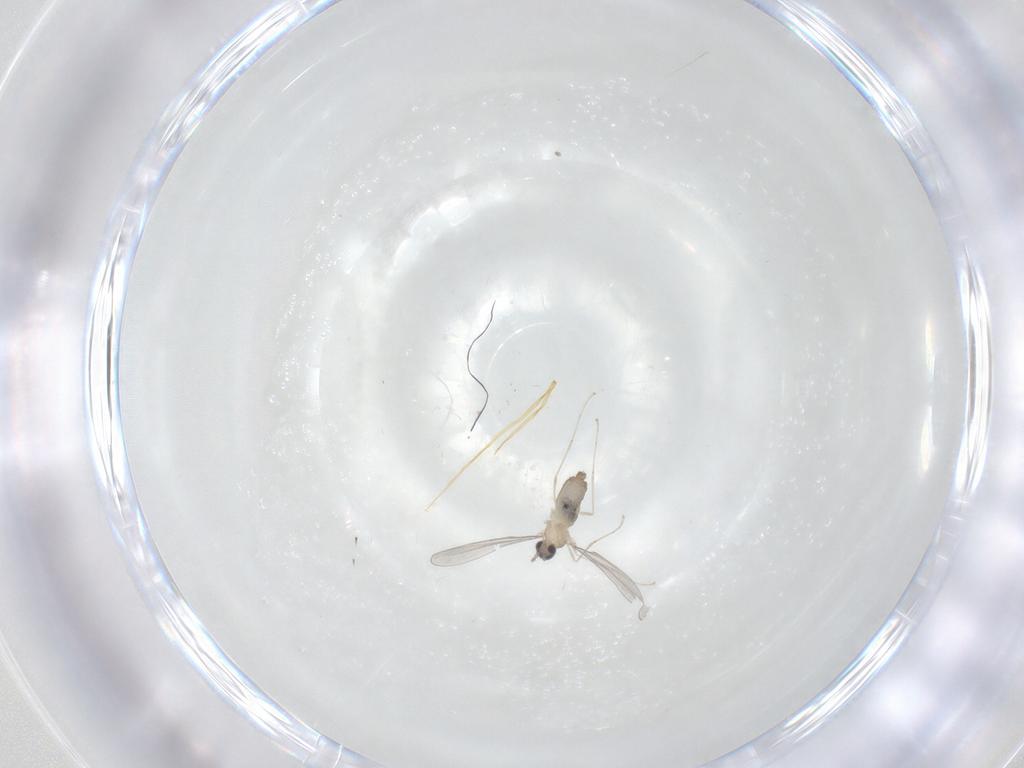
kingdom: Animalia
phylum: Arthropoda
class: Insecta
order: Diptera
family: Cecidomyiidae
